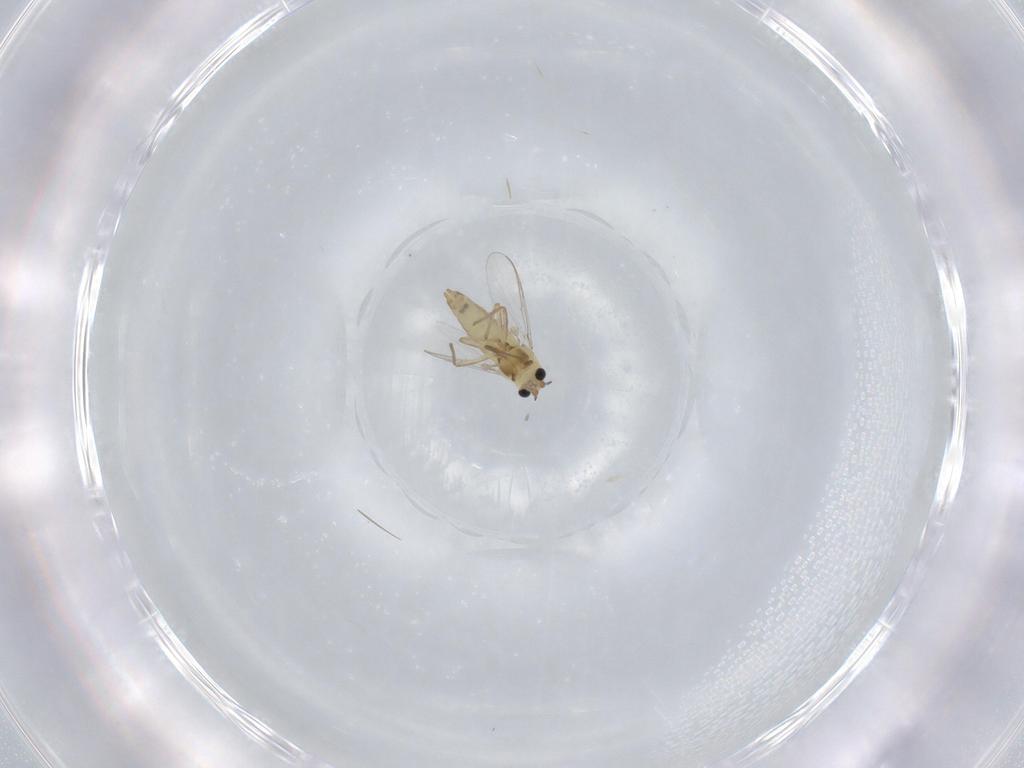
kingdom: Animalia
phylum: Arthropoda
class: Insecta
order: Diptera
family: Chironomidae
